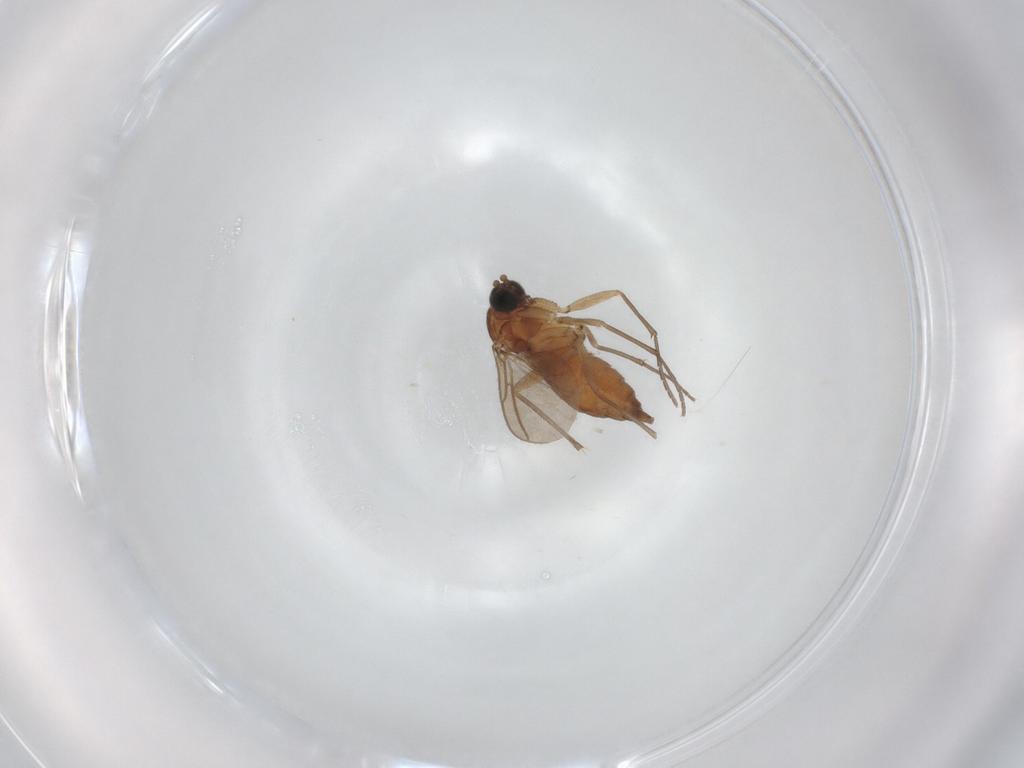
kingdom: Animalia
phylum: Arthropoda
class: Insecta
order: Diptera
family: Sciaridae
